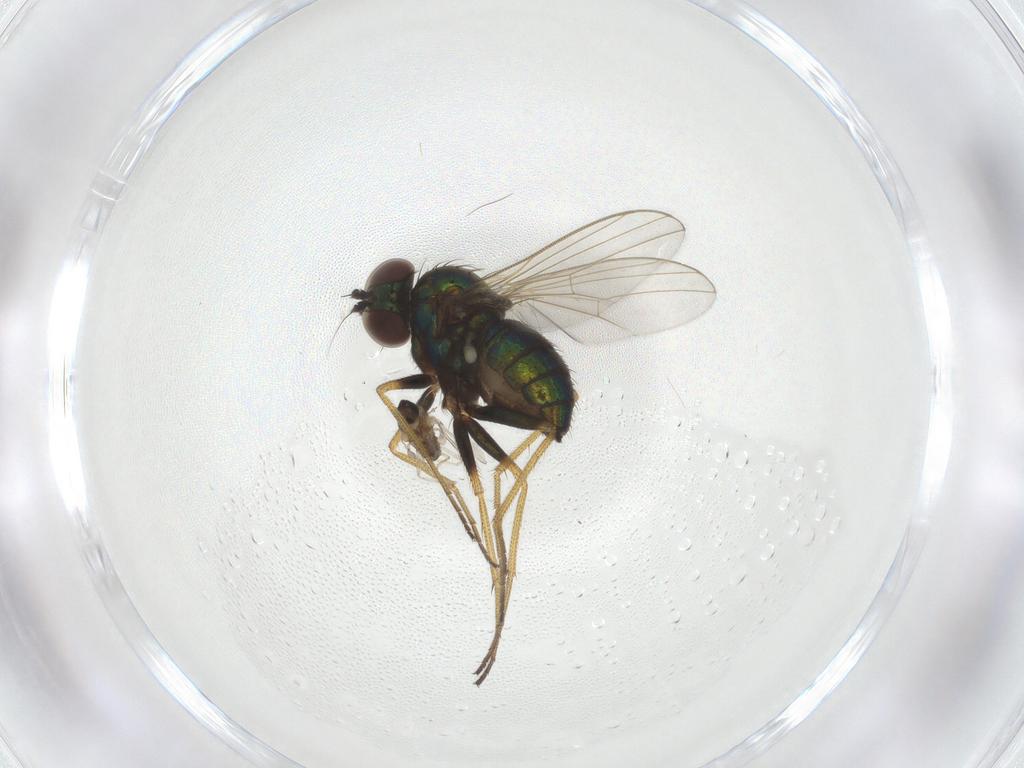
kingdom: Animalia
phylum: Arthropoda
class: Insecta
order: Diptera
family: Dolichopodidae
